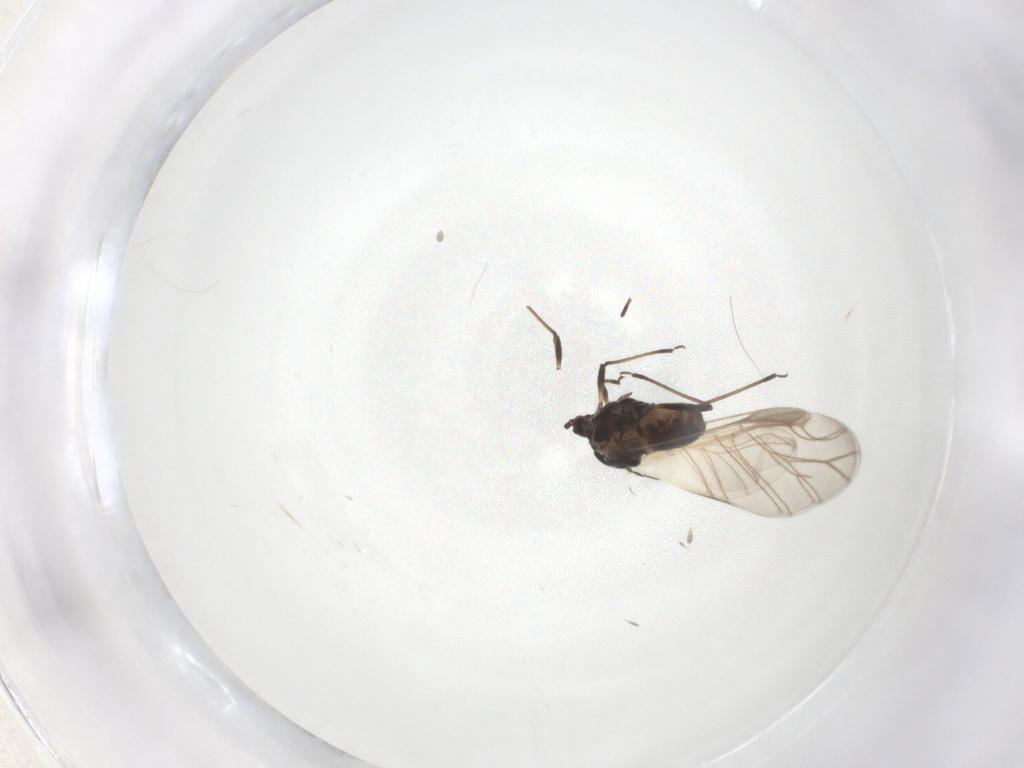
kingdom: Animalia
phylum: Arthropoda
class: Insecta
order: Hemiptera
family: Aphididae
